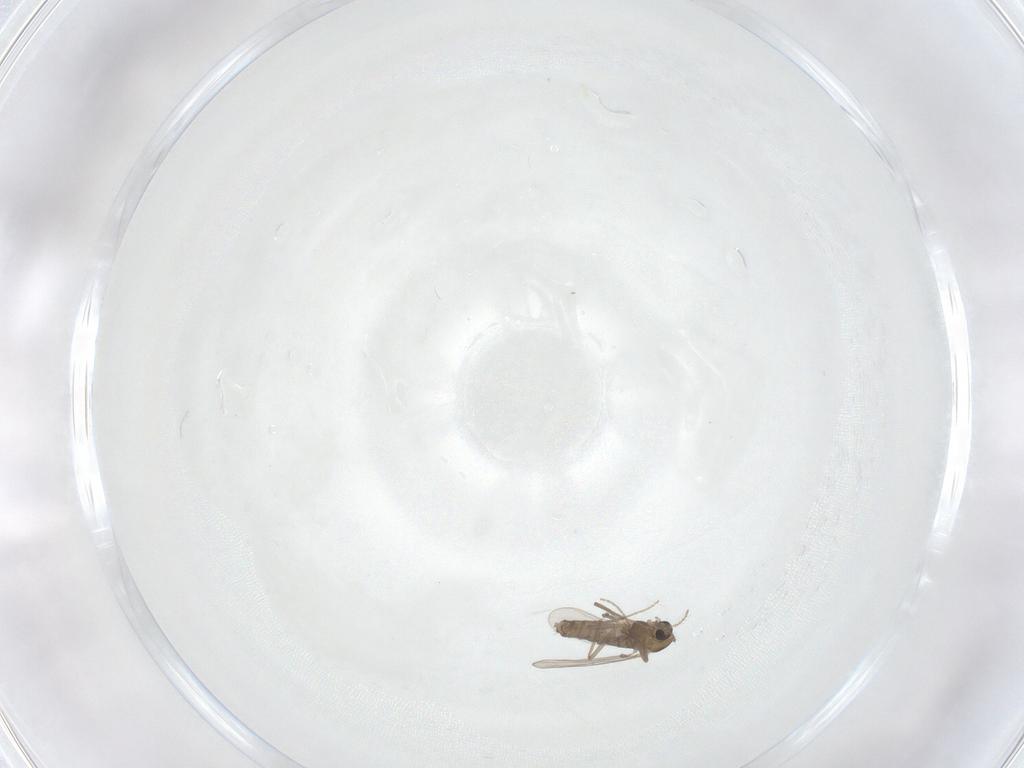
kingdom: Animalia
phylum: Arthropoda
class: Insecta
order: Diptera
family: Chironomidae
